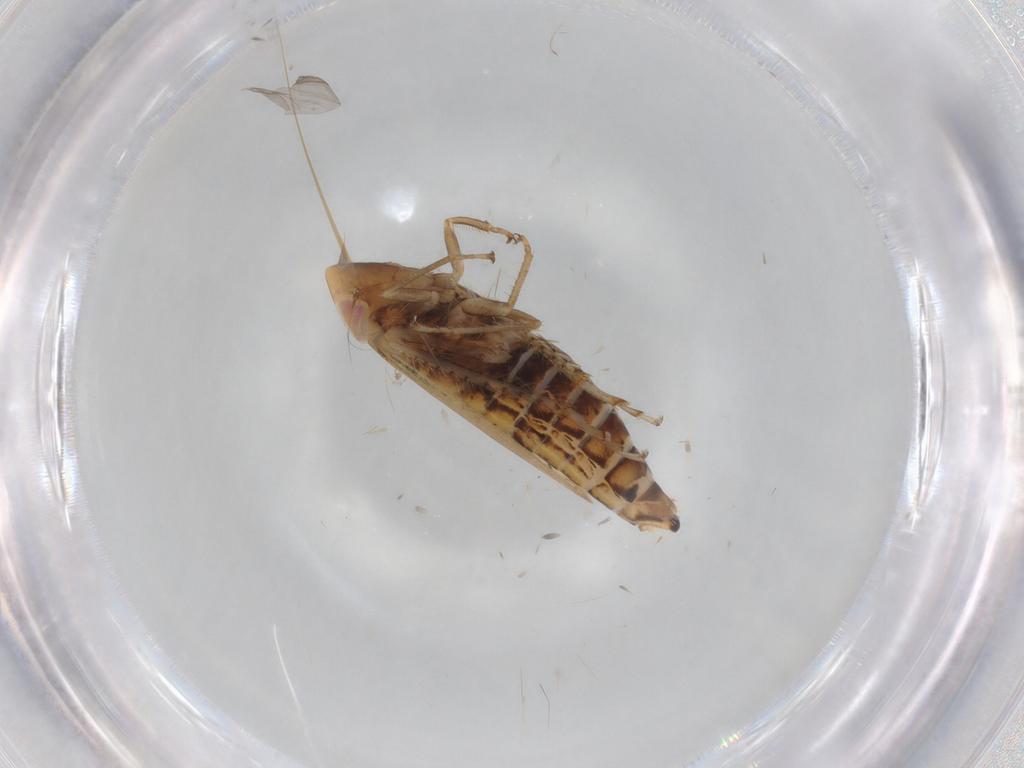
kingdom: Animalia
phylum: Arthropoda
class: Insecta
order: Hemiptera
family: Cicadellidae
